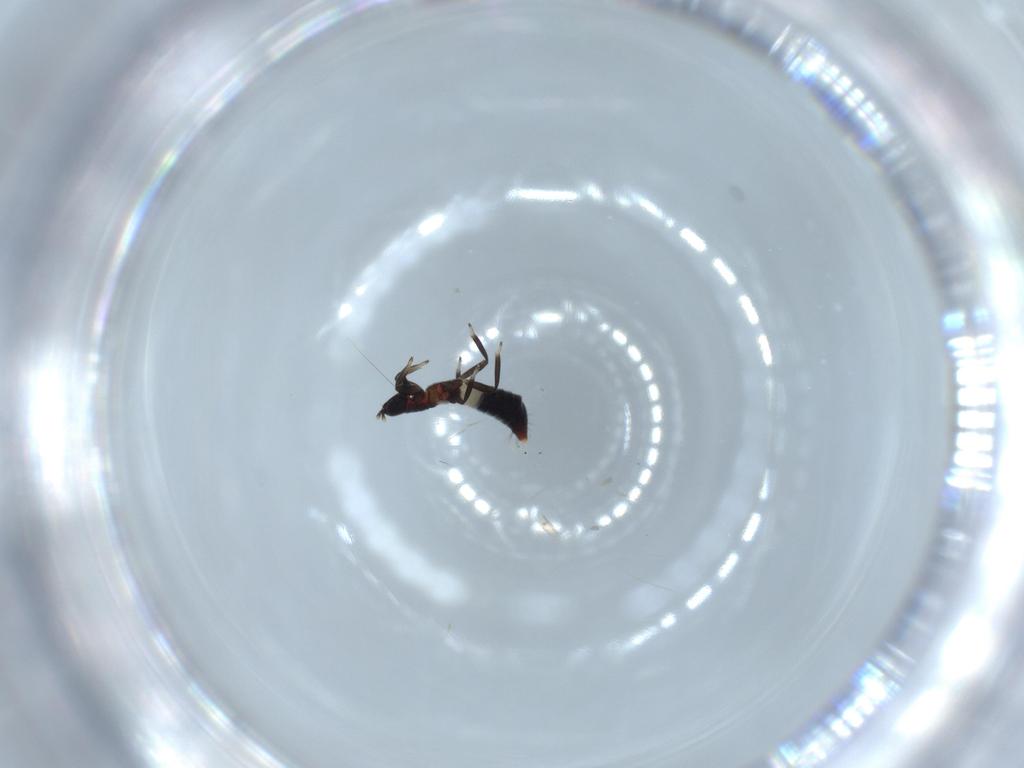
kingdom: Animalia
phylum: Arthropoda
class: Insecta
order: Thysanoptera
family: Aeolothripidae
